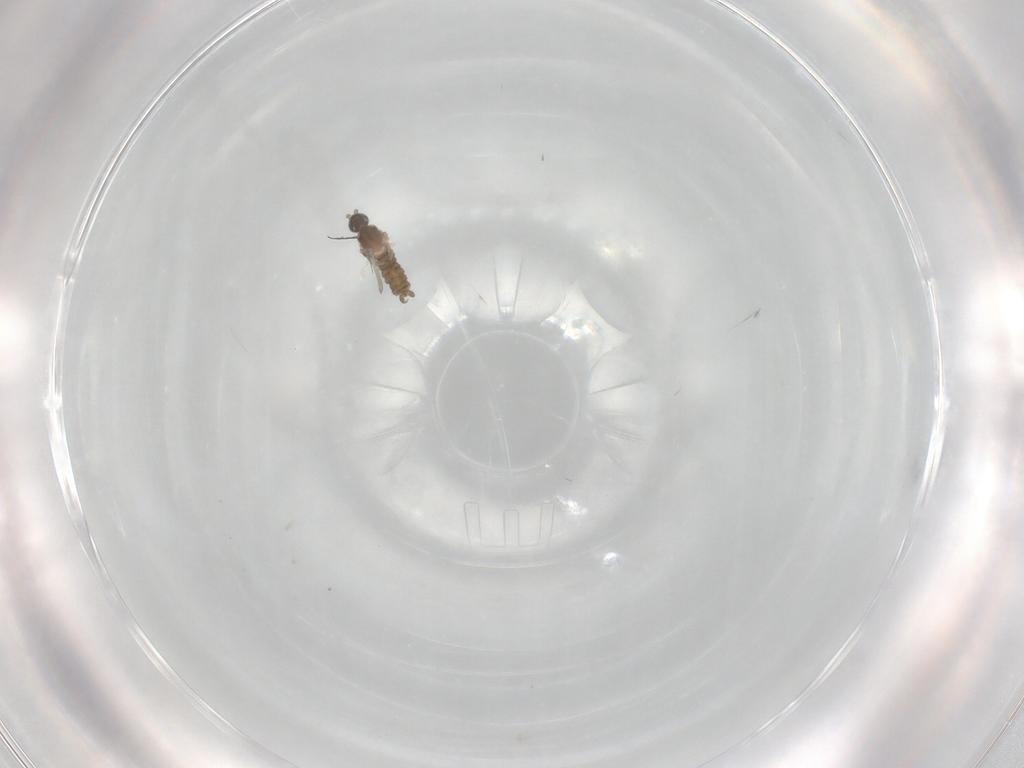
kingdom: Animalia
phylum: Arthropoda
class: Insecta
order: Diptera
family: Cecidomyiidae
